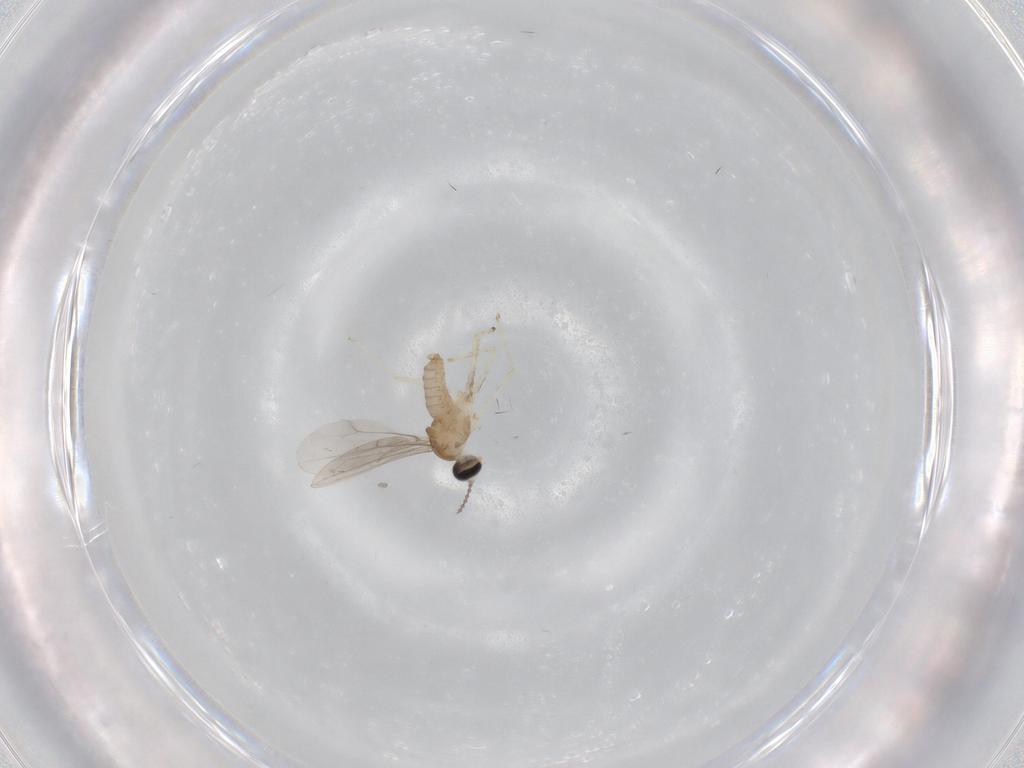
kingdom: Animalia
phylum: Arthropoda
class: Insecta
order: Diptera
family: Cecidomyiidae
